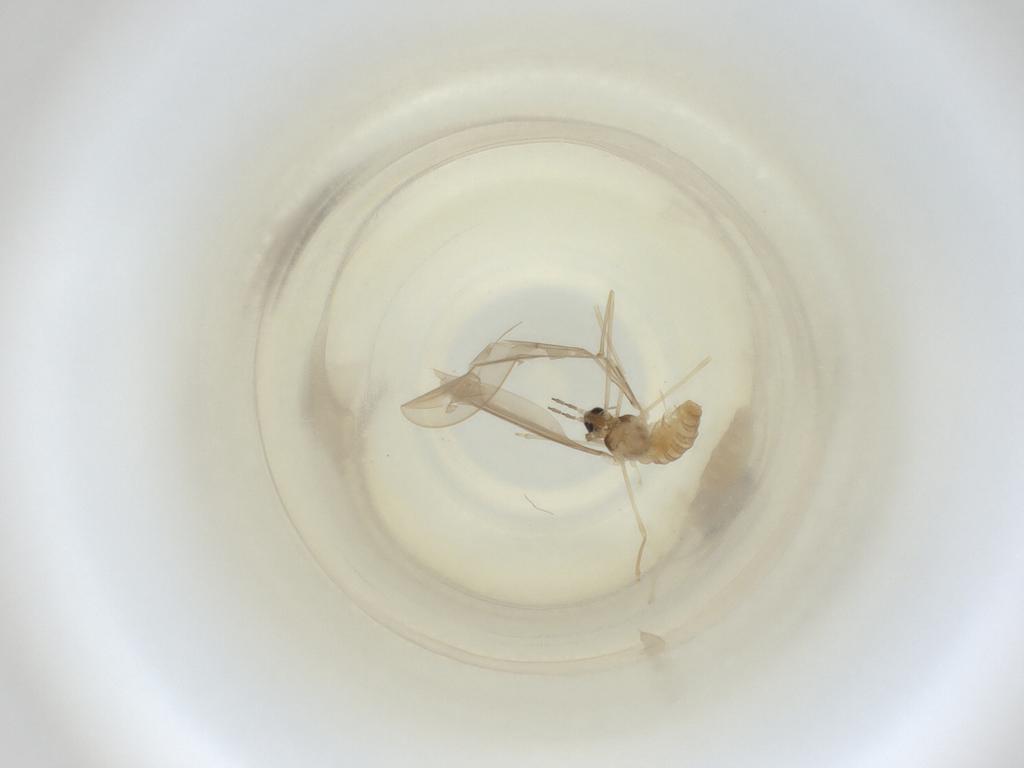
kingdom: Animalia
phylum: Arthropoda
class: Insecta
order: Diptera
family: Cecidomyiidae
